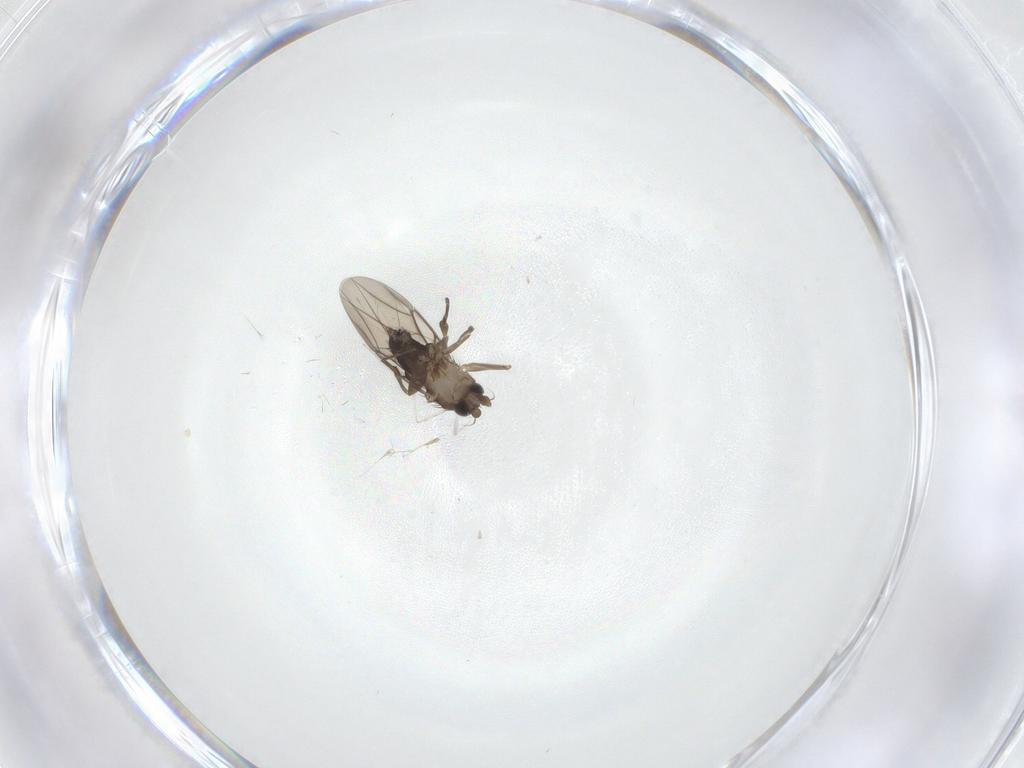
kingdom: Animalia
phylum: Arthropoda
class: Insecta
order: Diptera
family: Phoridae
